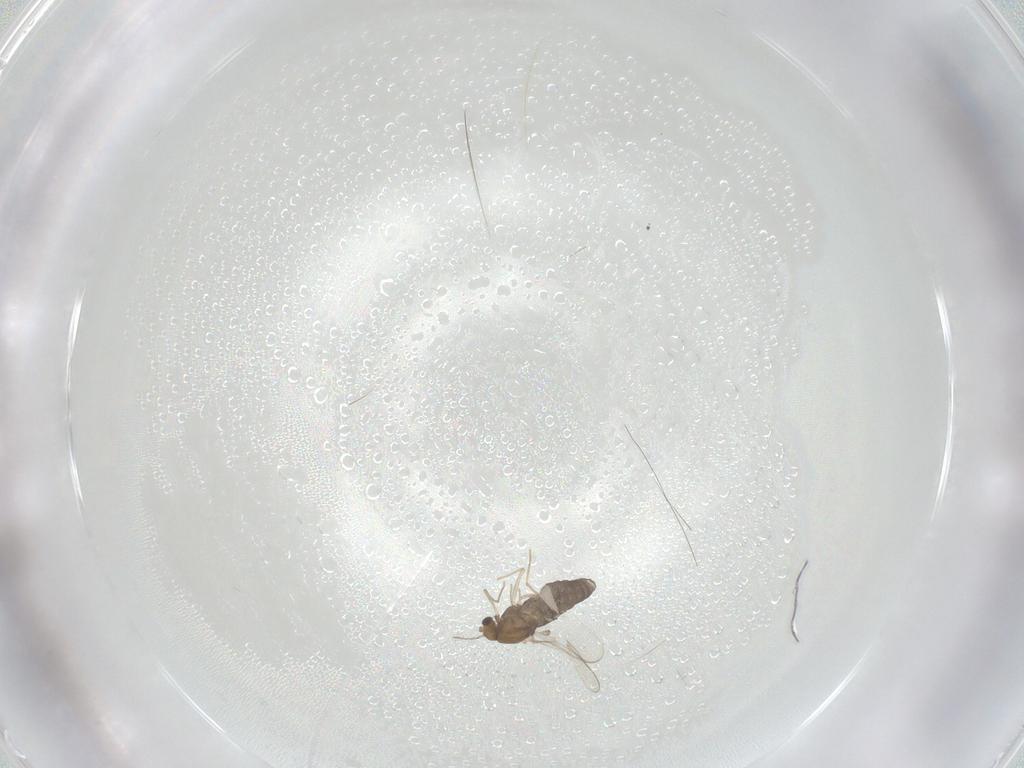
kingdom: Animalia
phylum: Arthropoda
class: Insecta
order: Diptera
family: Chironomidae
